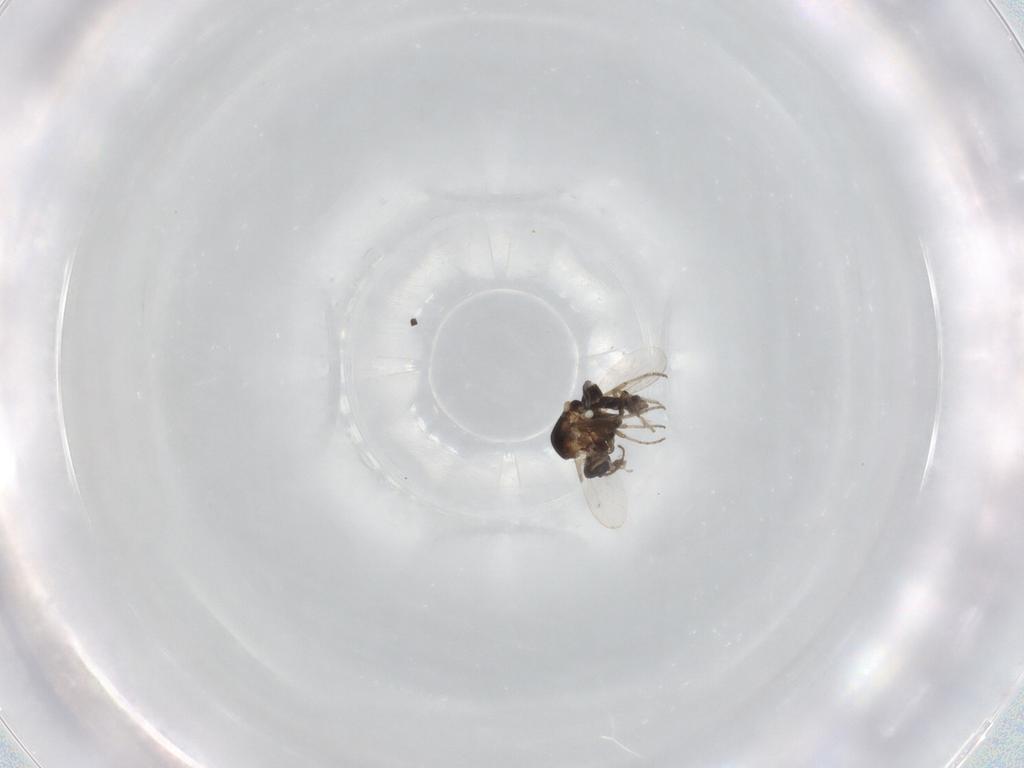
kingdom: Animalia
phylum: Arthropoda
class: Insecta
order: Diptera
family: Ceratopogonidae
